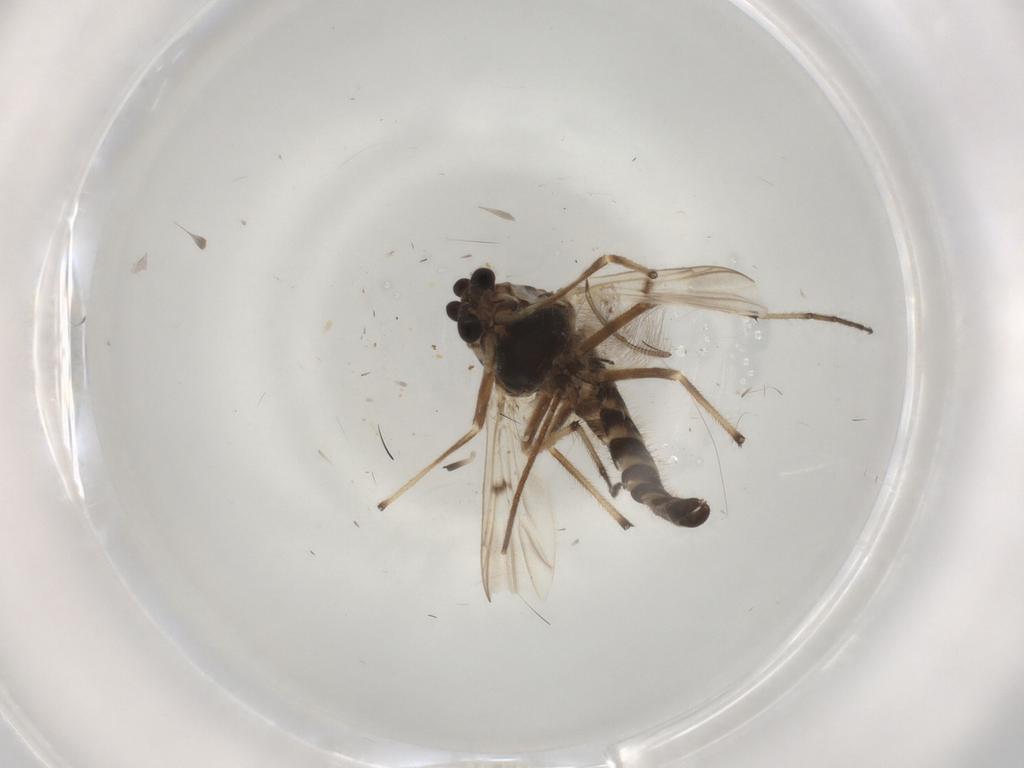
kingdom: Animalia
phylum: Arthropoda
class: Insecta
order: Diptera
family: Chironomidae
